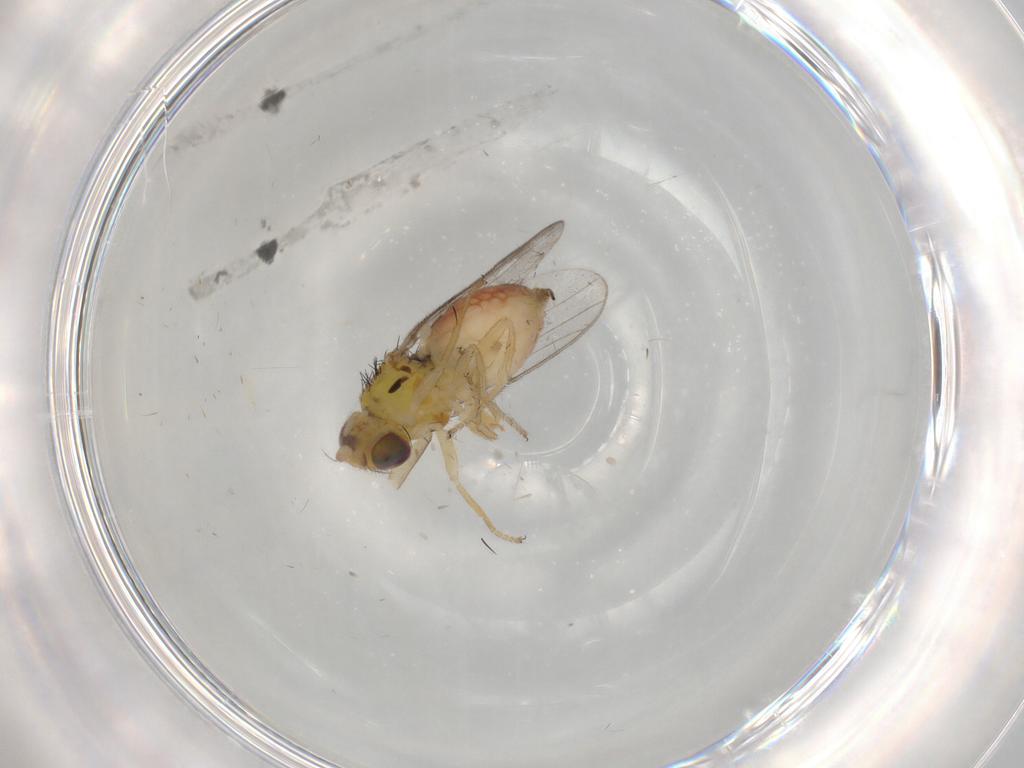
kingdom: Animalia
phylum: Arthropoda
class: Insecta
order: Diptera
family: Chloropidae
